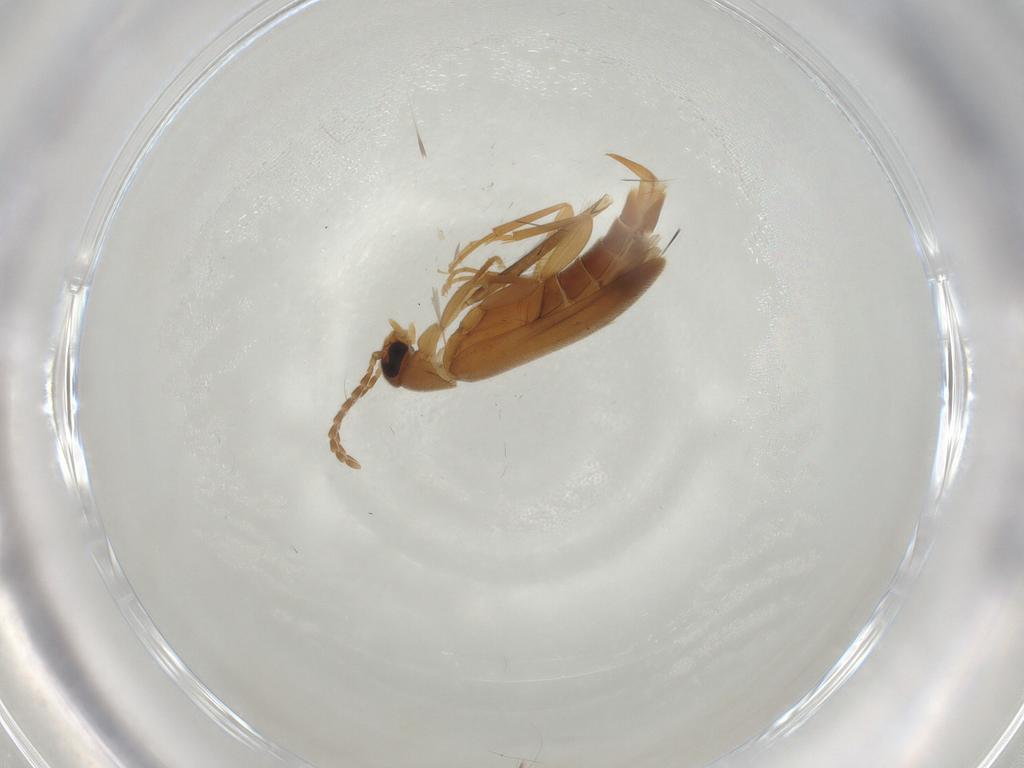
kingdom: Animalia
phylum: Arthropoda
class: Insecta
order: Coleoptera
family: Scraptiidae
